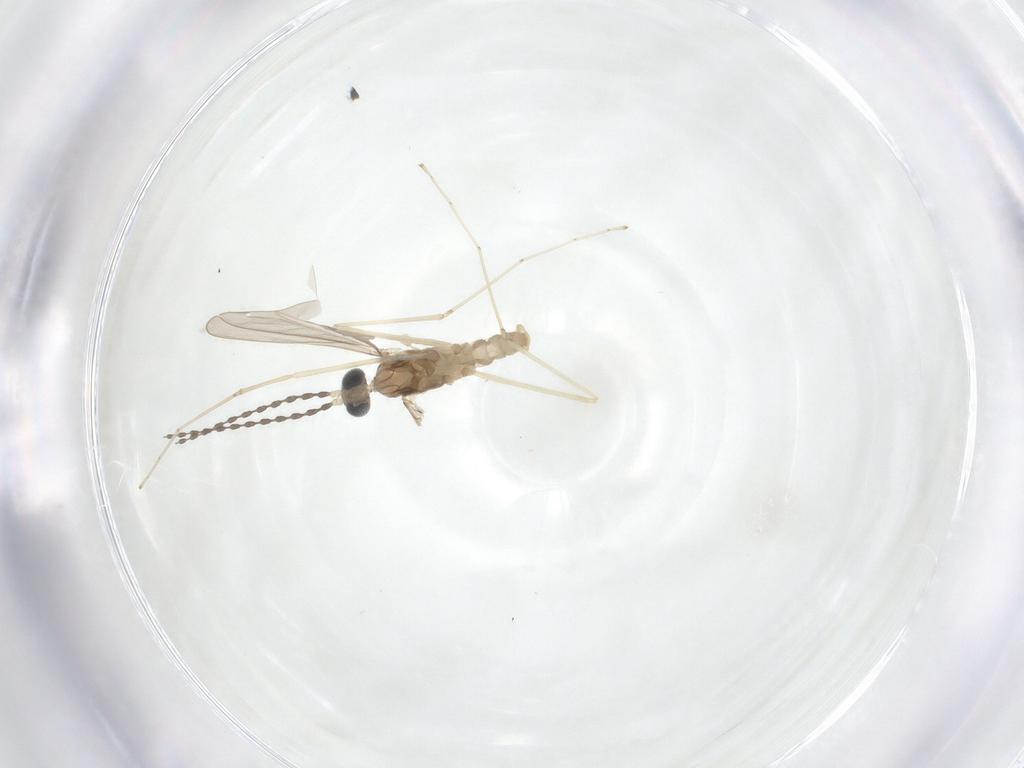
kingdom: Animalia
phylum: Arthropoda
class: Insecta
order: Diptera
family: Cecidomyiidae
